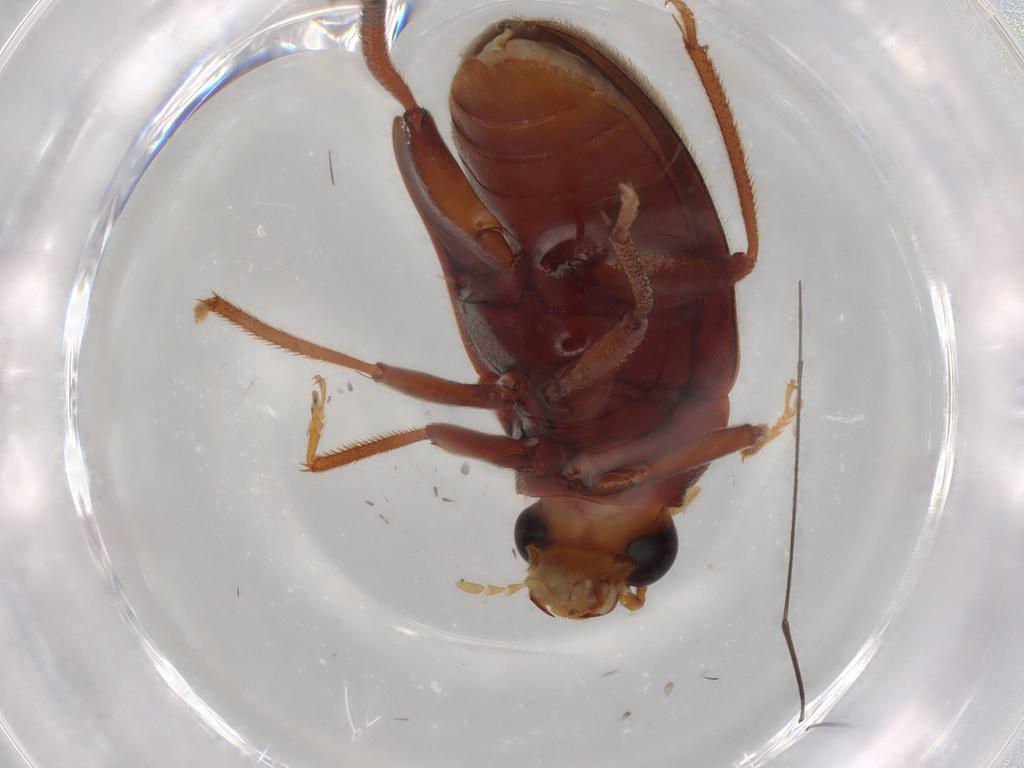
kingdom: Animalia
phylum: Arthropoda
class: Insecta
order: Coleoptera
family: Ptilodactylidae
